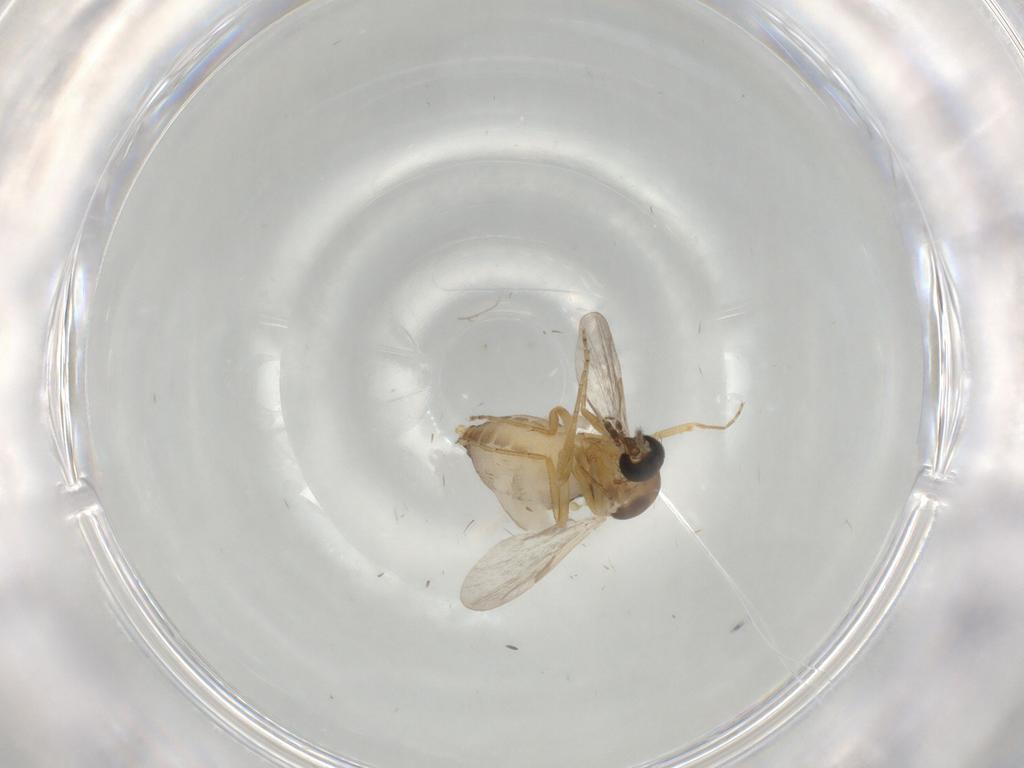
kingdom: Animalia
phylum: Arthropoda
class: Insecta
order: Diptera
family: Ceratopogonidae
